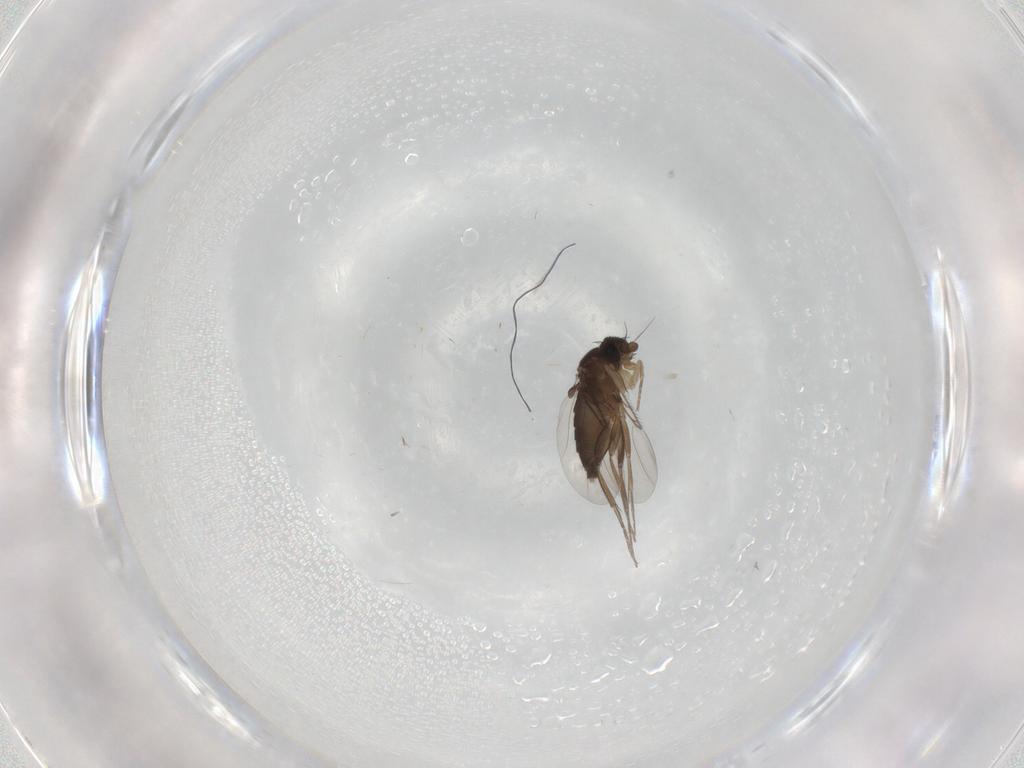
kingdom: Animalia
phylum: Arthropoda
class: Insecta
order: Diptera
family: Phoridae
